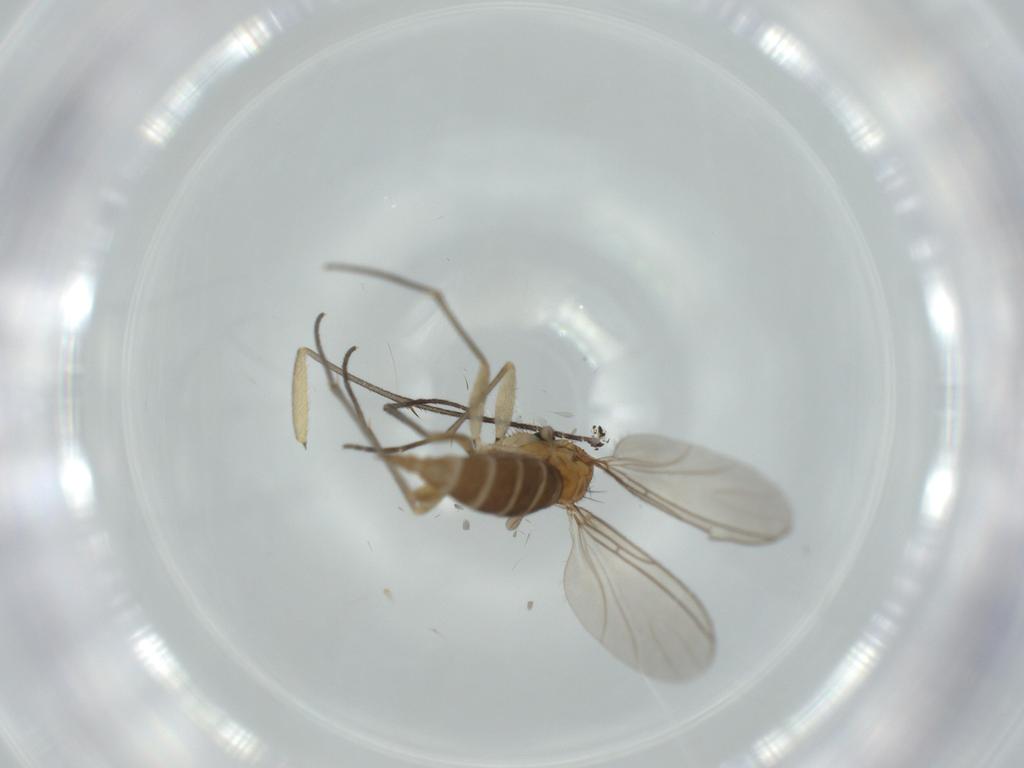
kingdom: Animalia
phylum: Arthropoda
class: Insecta
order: Diptera
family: Sciaridae
